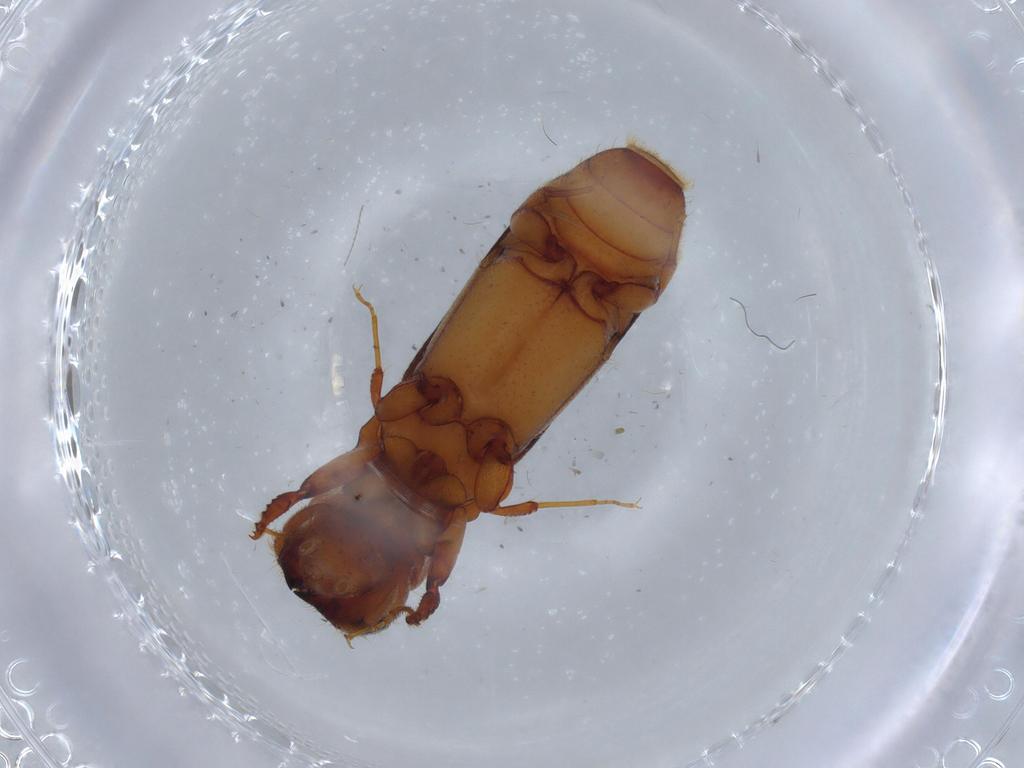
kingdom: Animalia
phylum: Arthropoda
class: Insecta
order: Coleoptera
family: Curculionidae
